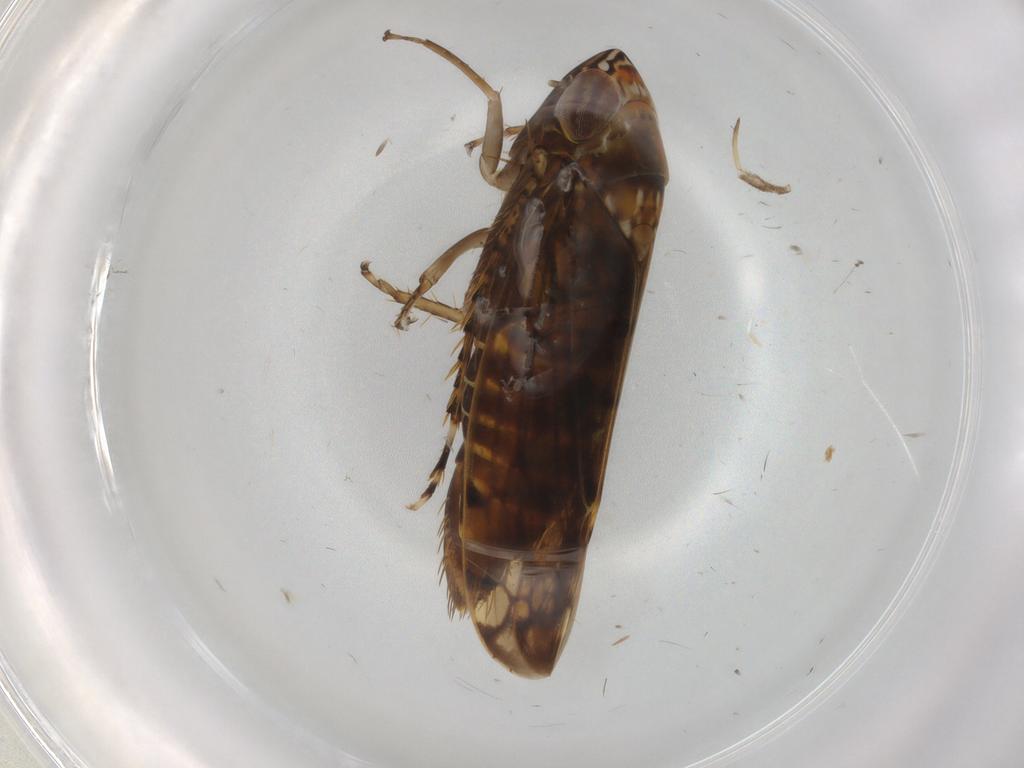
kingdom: Animalia
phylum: Arthropoda
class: Insecta
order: Hemiptera
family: Cicadellidae
